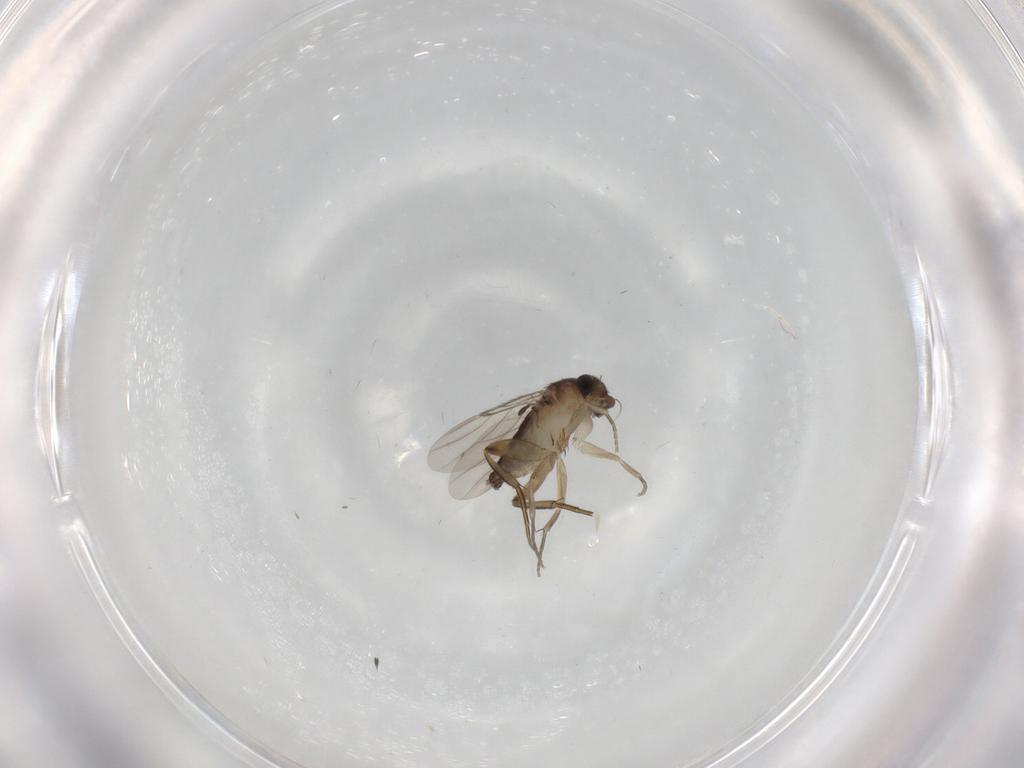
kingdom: Animalia
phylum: Arthropoda
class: Insecta
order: Diptera
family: Phoridae
